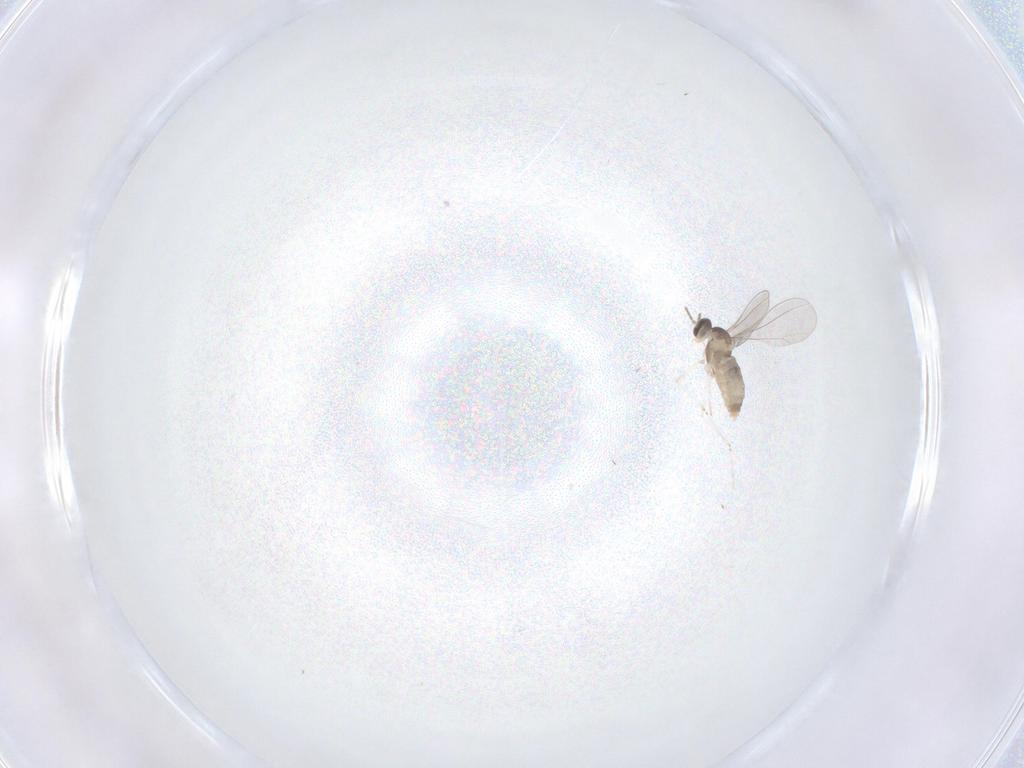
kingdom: Animalia
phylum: Arthropoda
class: Insecta
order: Diptera
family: Cecidomyiidae
